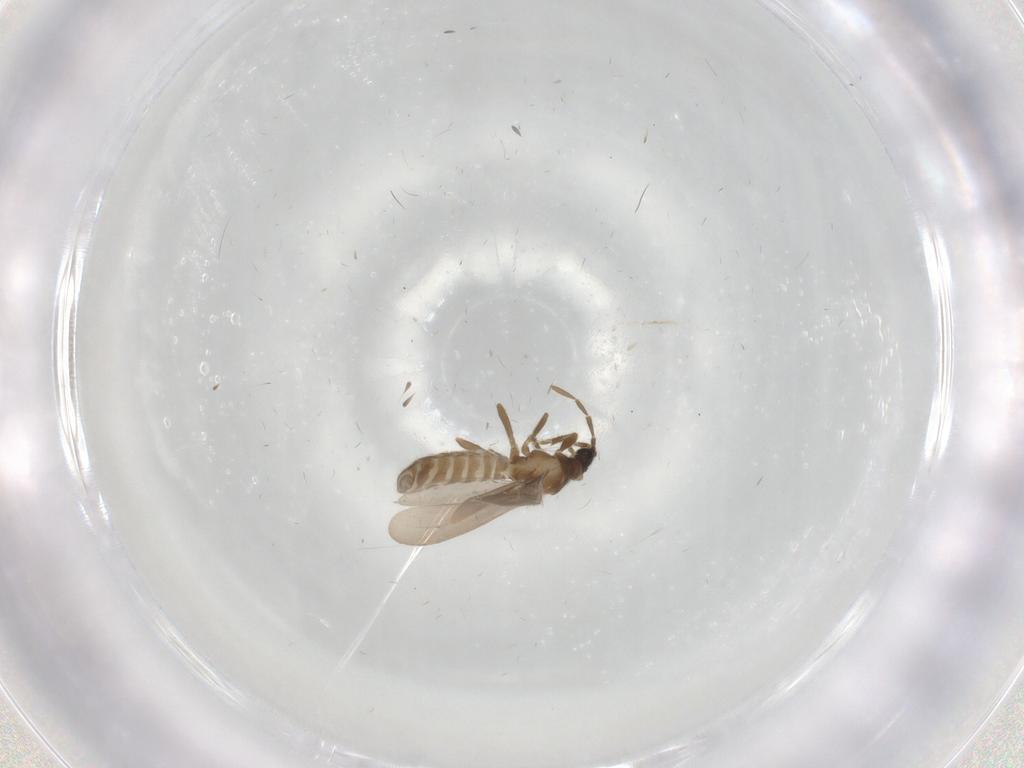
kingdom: Animalia
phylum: Arthropoda
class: Insecta
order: Hemiptera
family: Enicocephalidae
